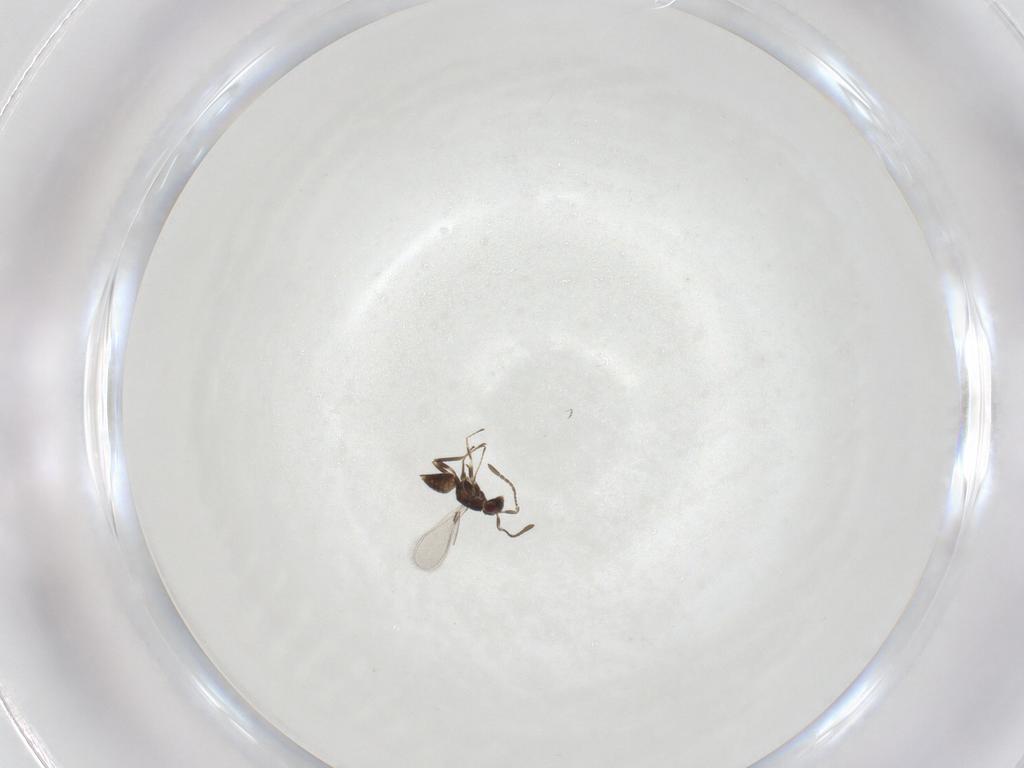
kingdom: Animalia
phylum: Arthropoda
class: Insecta
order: Hymenoptera
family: Mymaridae
